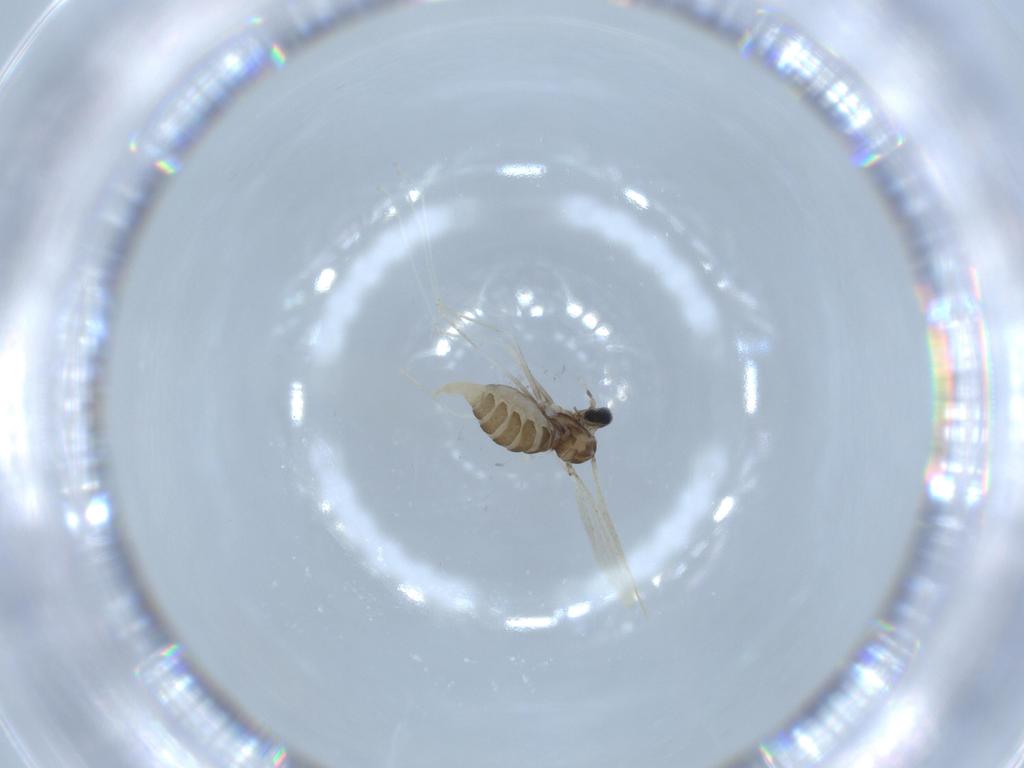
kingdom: Animalia
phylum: Arthropoda
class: Insecta
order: Diptera
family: Cecidomyiidae
